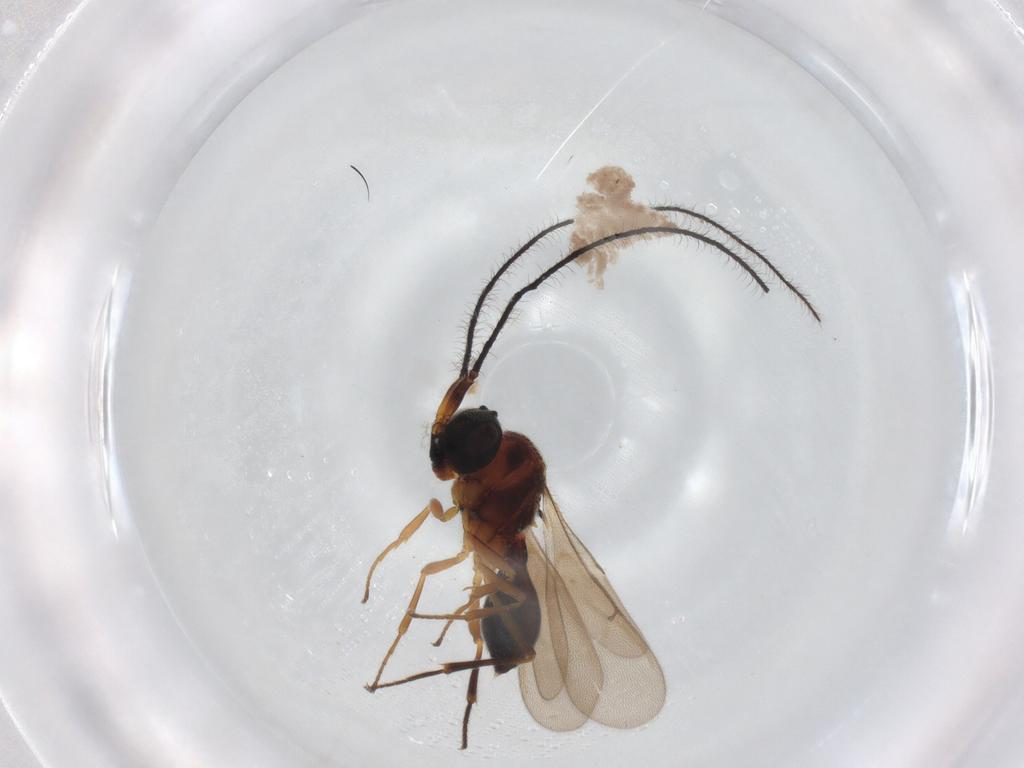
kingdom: Animalia
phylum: Arthropoda
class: Insecta
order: Hymenoptera
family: Scelionidae
